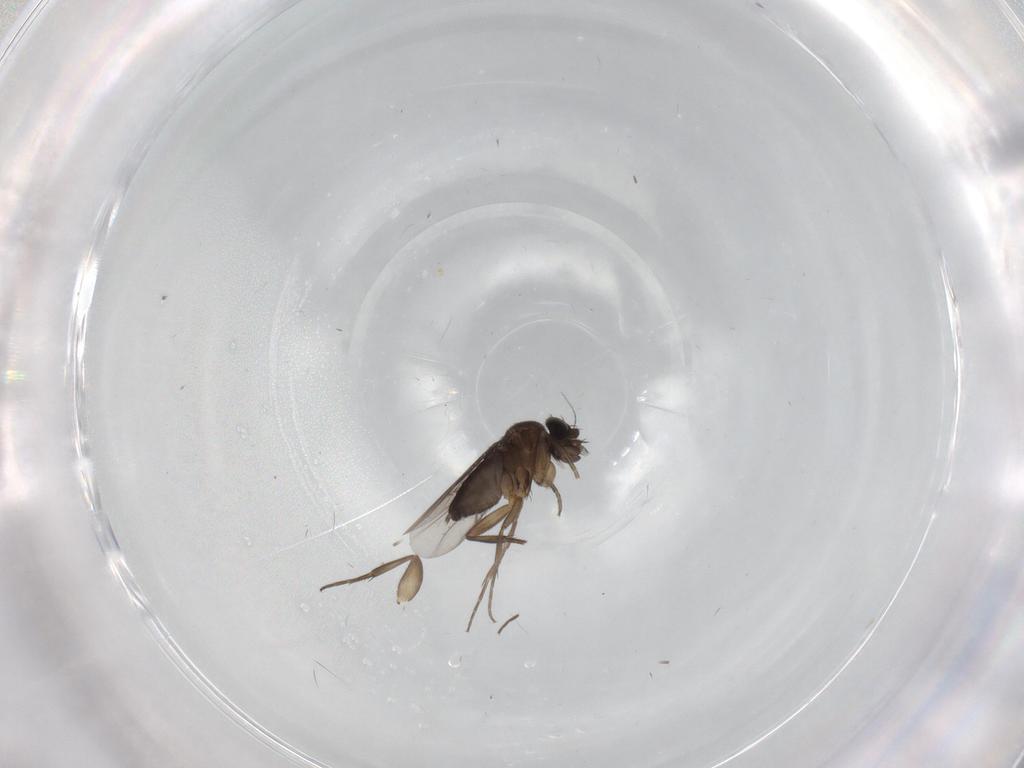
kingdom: Animalia
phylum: Arthropoda
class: Insecta
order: Diptera
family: Phoridae
